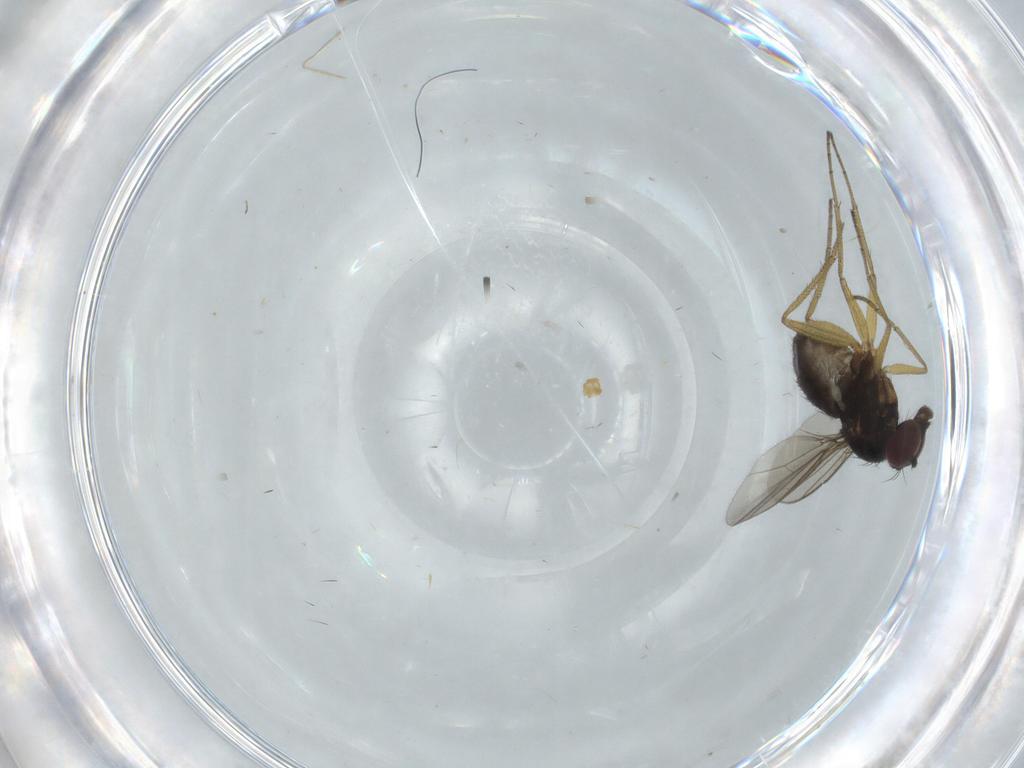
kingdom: Animalia
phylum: Arthropoda
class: Insecta
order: Diptera
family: Dolichopodidae
